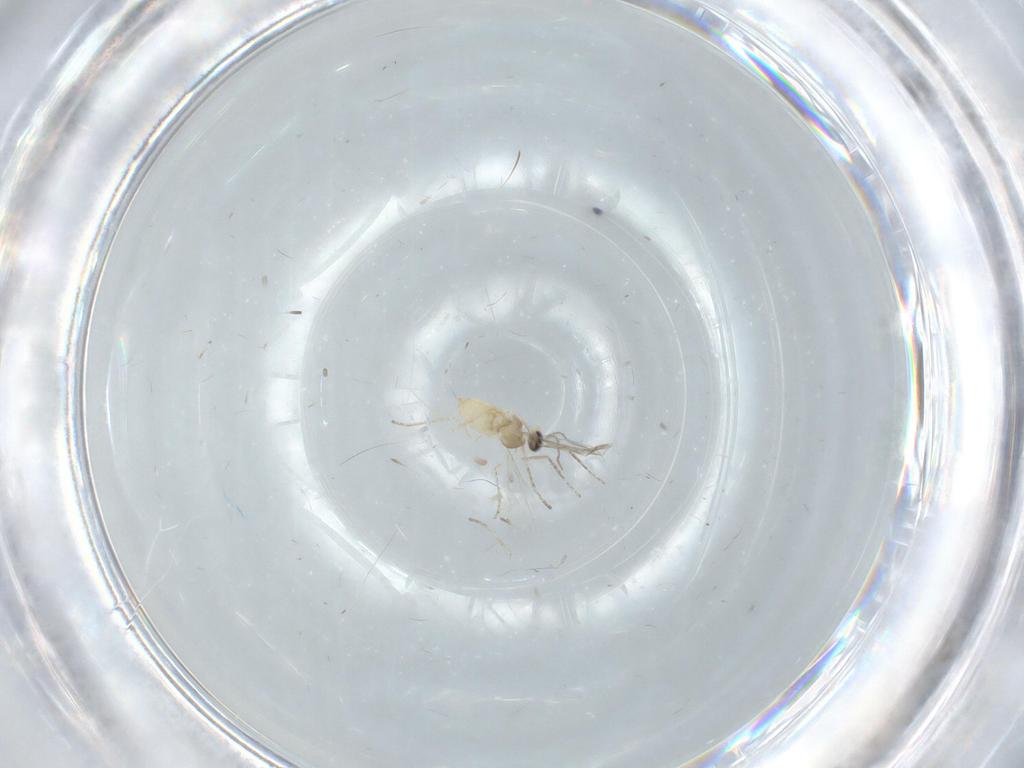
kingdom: Animalia
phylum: Arthropoda
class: Insecta
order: Diptera
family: Cecidomyiidae
